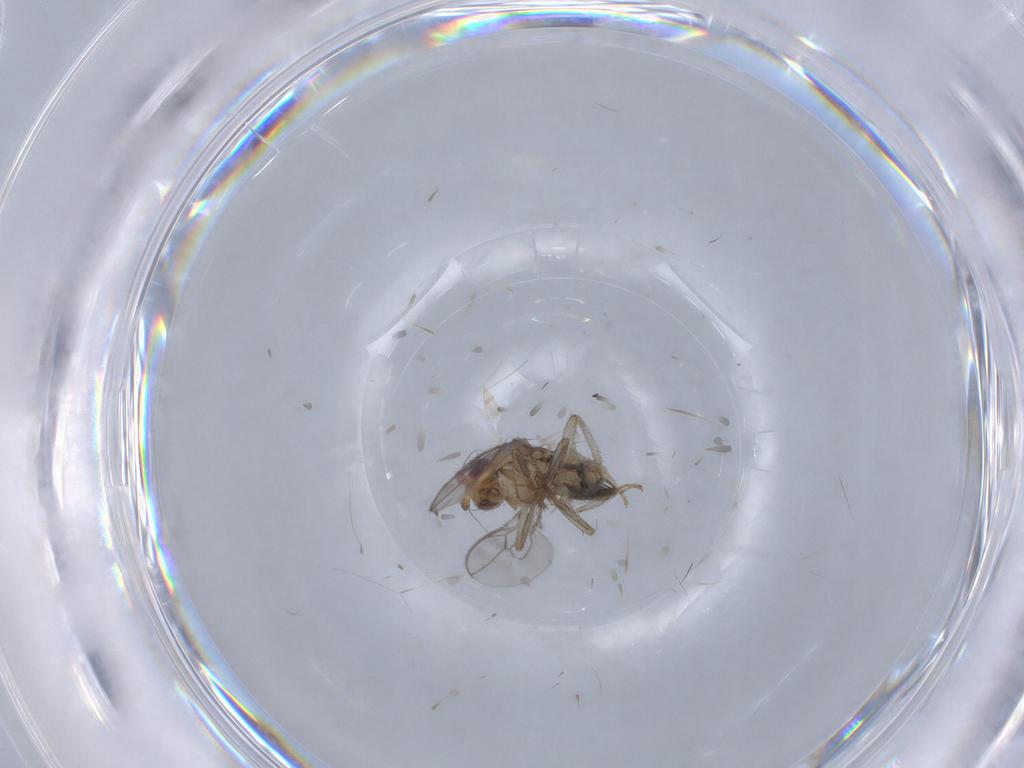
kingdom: Animalia
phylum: Arthropoda
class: Insecta
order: Diptera
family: Sphaeroceridae
